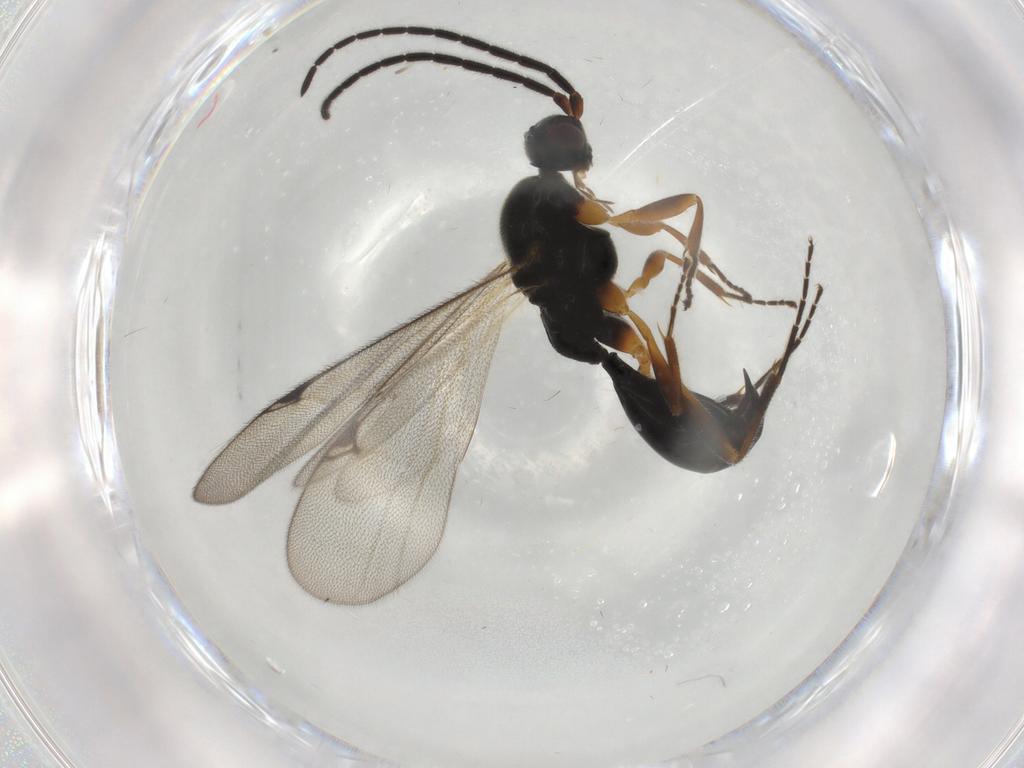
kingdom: Animalia
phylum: Arthropoda
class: Insecta
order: Hymenoptera
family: Proctotrupidae
